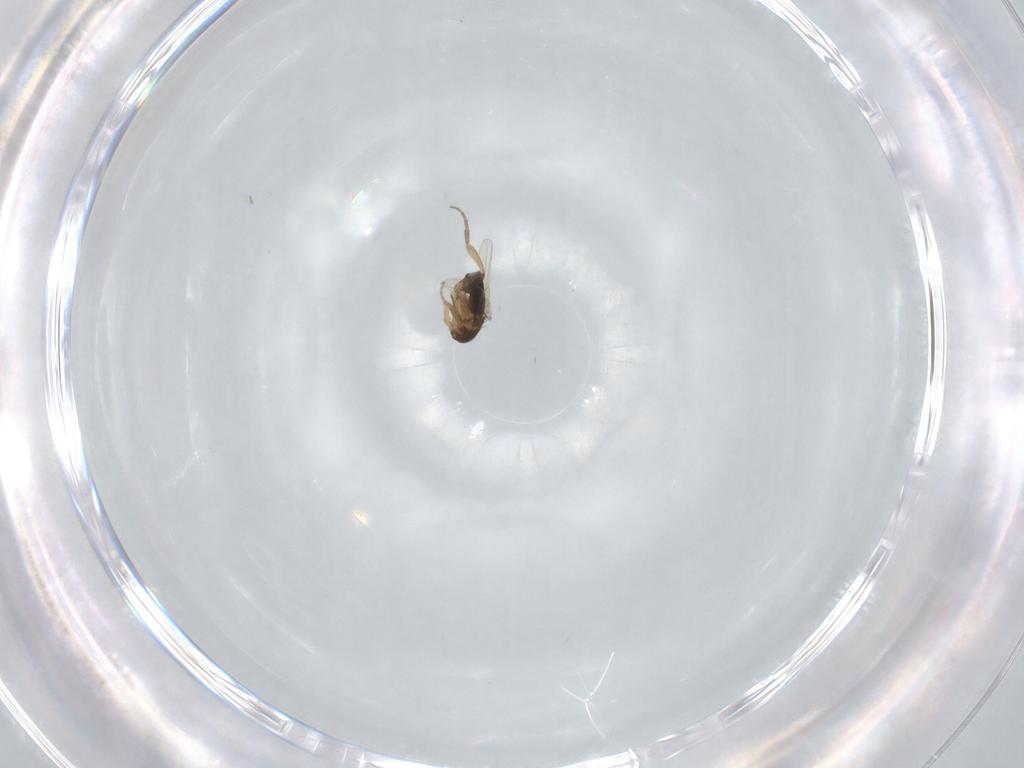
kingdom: Animalia
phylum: Arthropoda
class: Insecta
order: Diptera
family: Phoridae
